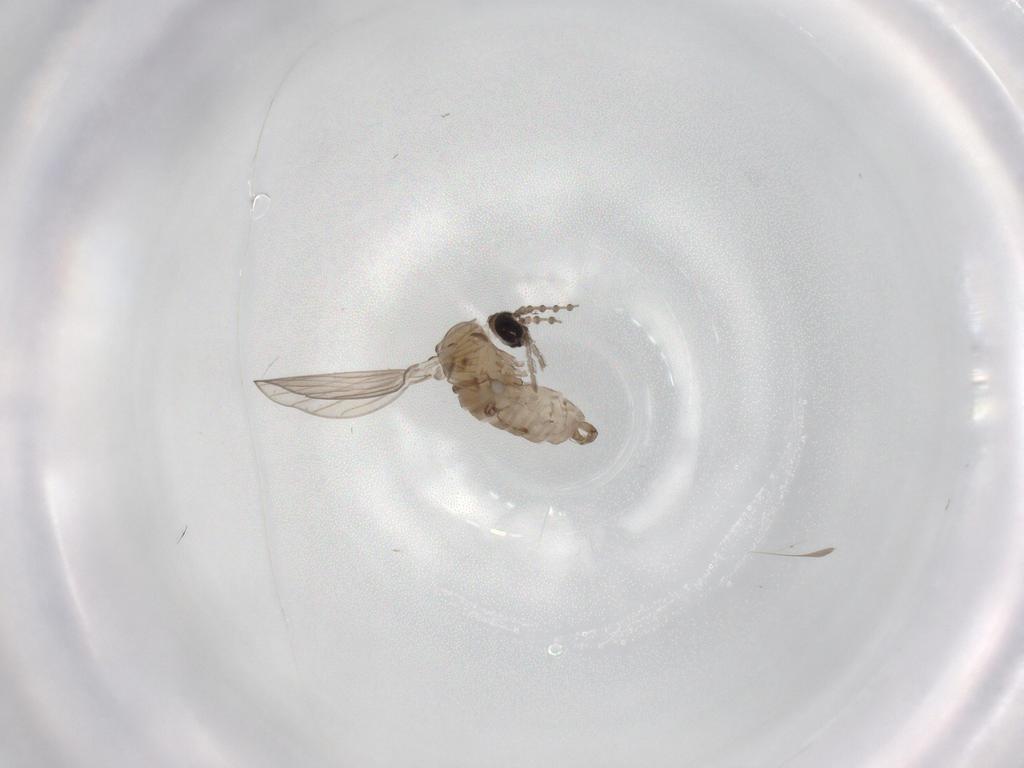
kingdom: Animalia
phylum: Arthropoda
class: Insecta
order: Diptera
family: Psychodidae
